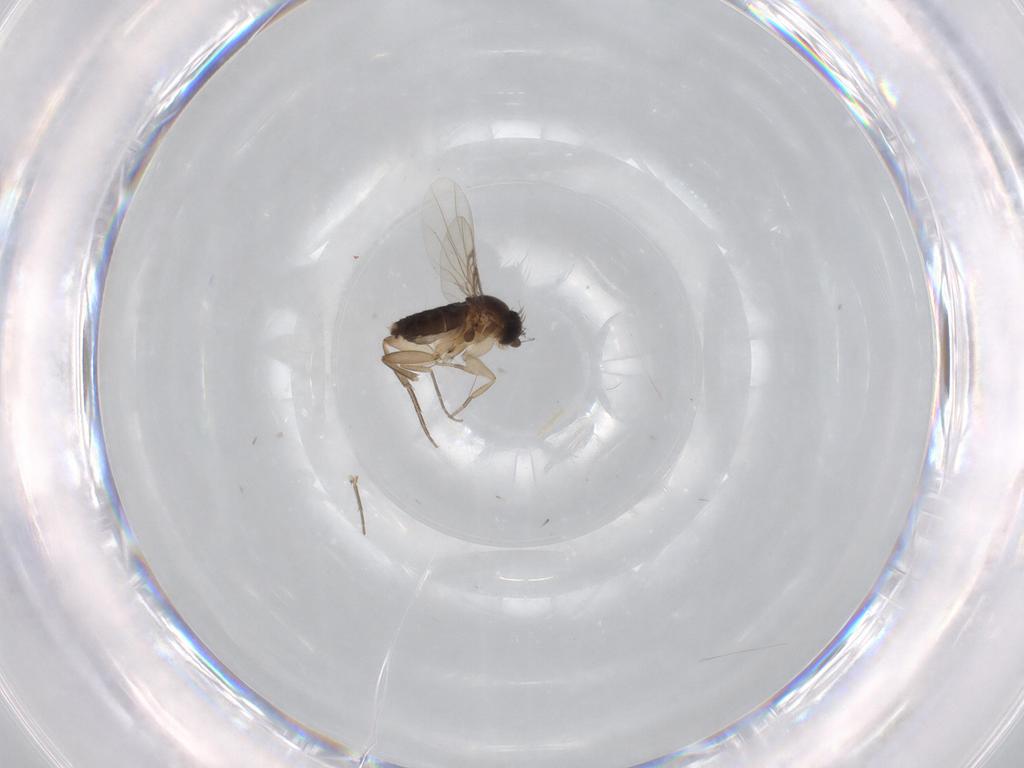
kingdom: Animalia
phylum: Arthropoda
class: Insecta
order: Diptera
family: Phoridae
